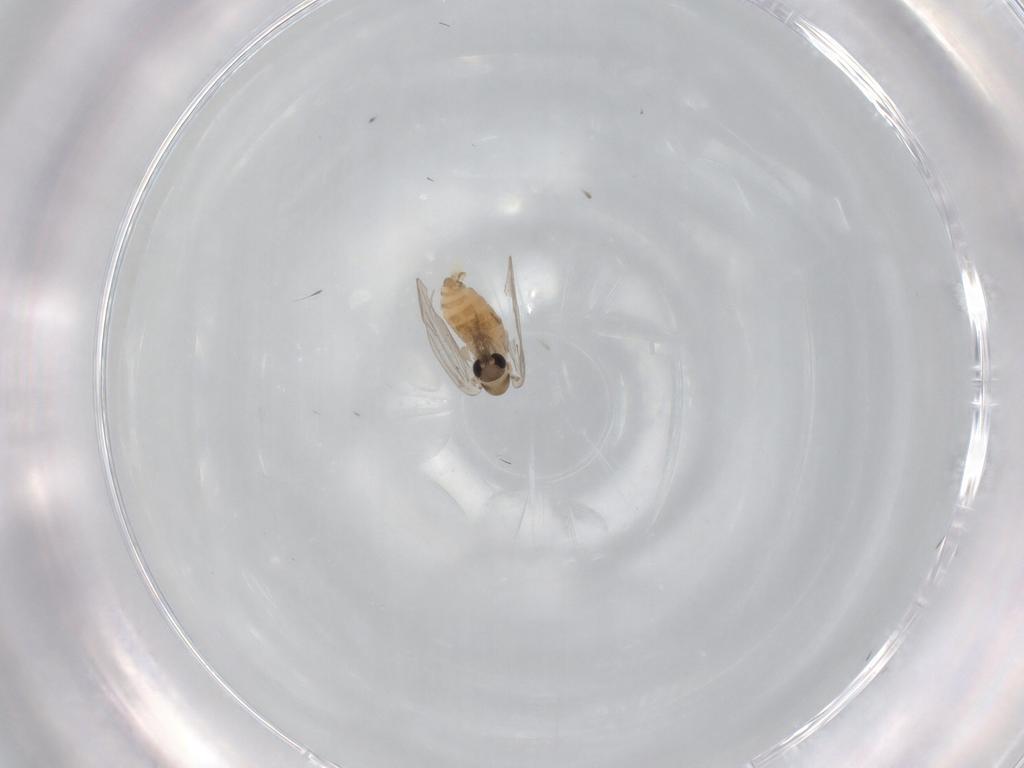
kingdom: Animalia
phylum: Arthropoda
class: Insecta
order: Diptera
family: Psychodidae
